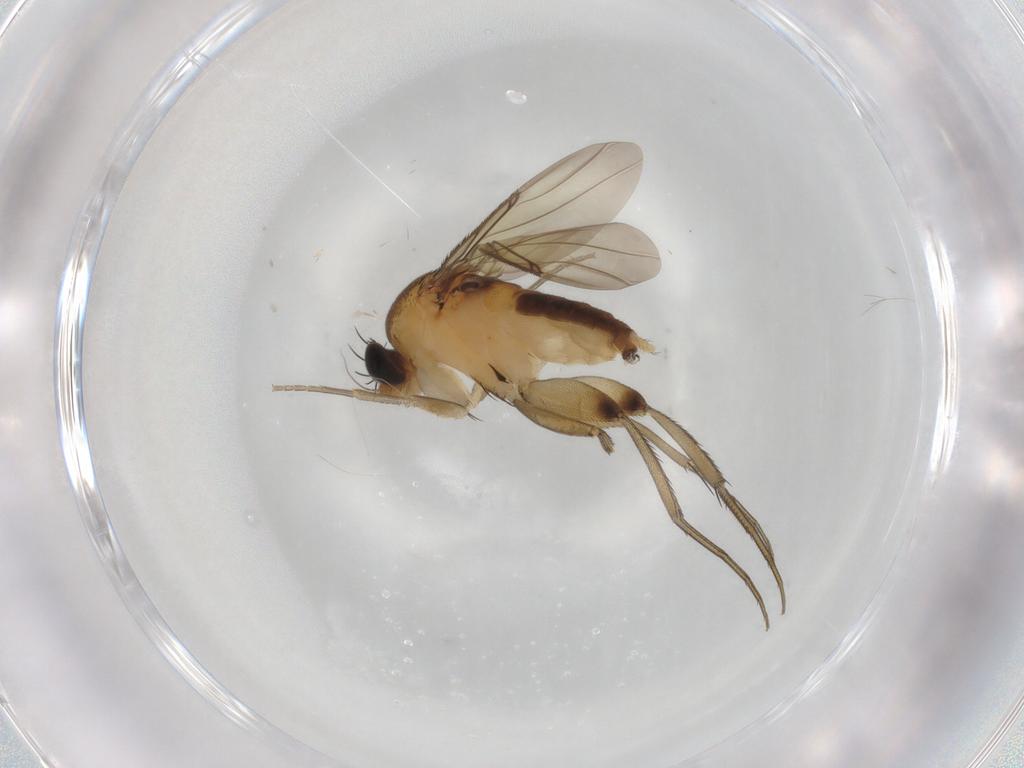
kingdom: Animalia
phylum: Arthropoda
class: Insecta
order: Diptera
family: Phoridae
